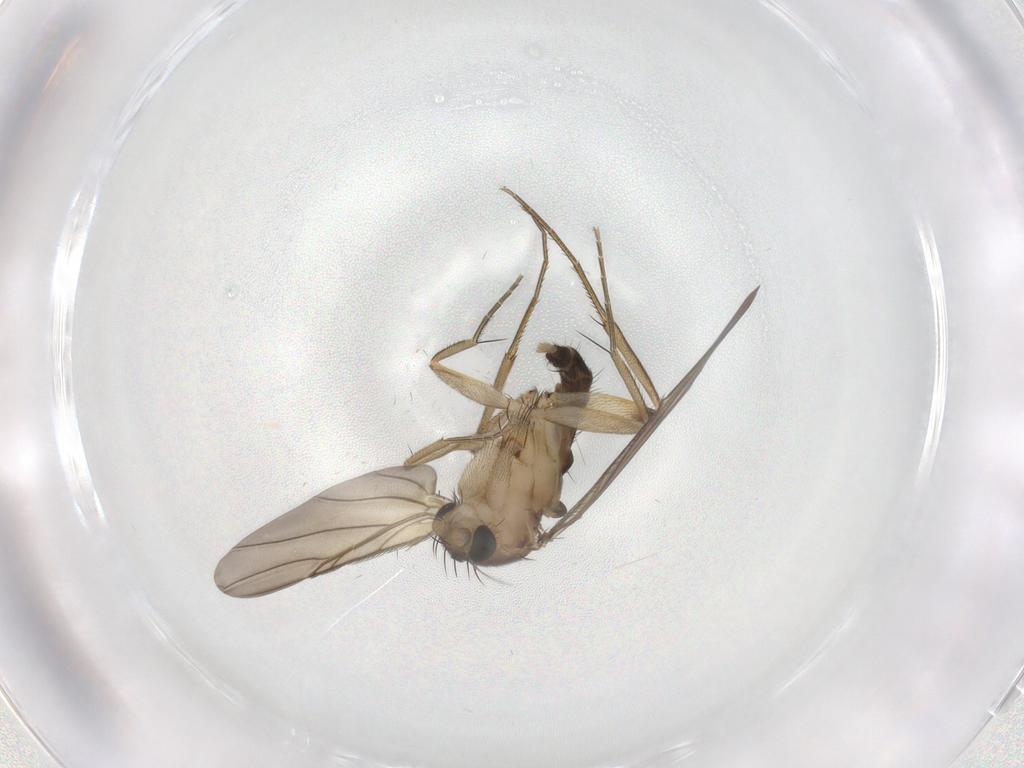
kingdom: Animalia
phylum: Arthropoda
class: Insecta
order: Diptera
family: Phoridae
